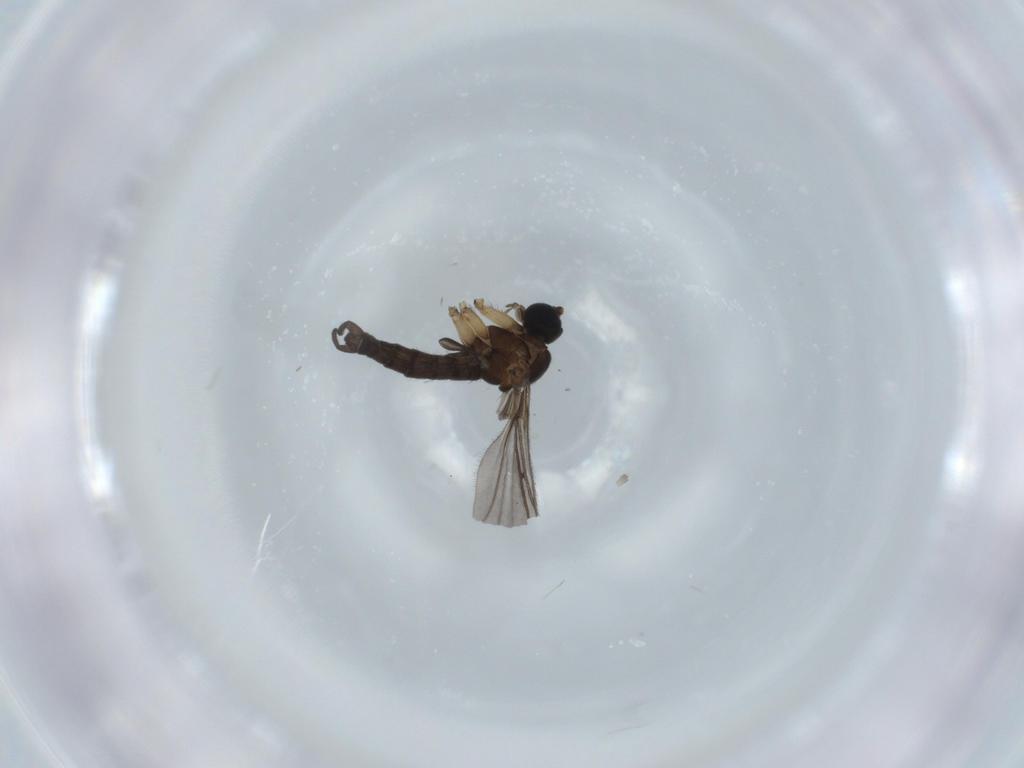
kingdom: Animalia
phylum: Arthropoda
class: Insecta
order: Diptera
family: Sciaridae
